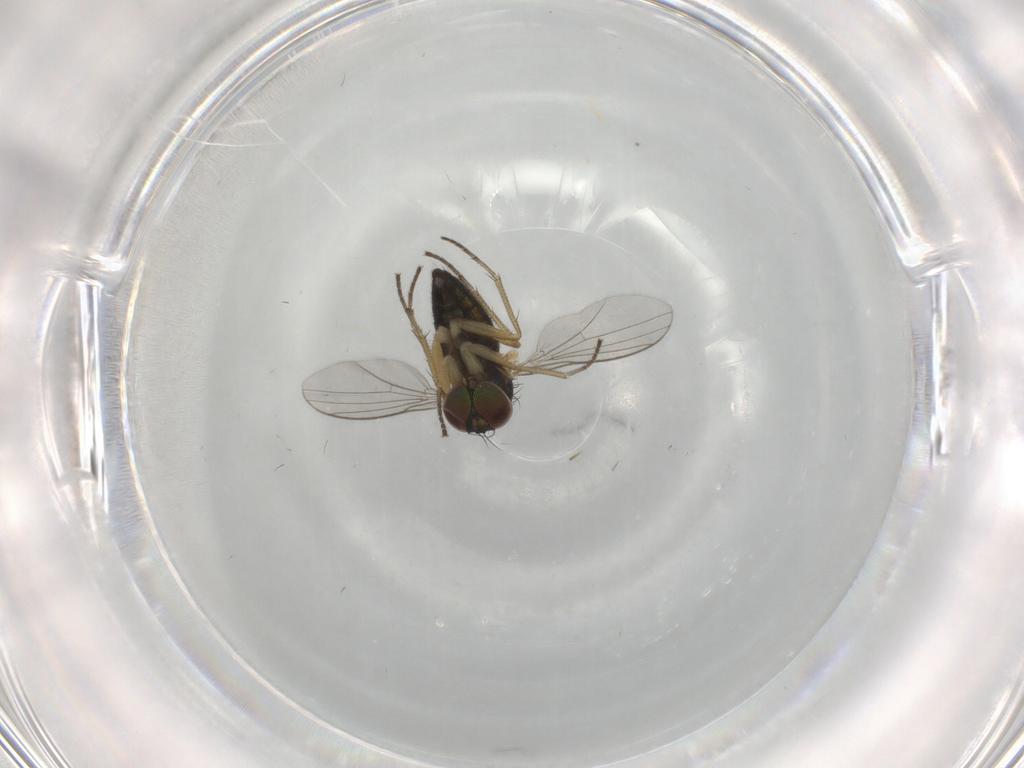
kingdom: Animalia
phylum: Arthropoda
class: Insecta
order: Diptera
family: Dolichopodidae
